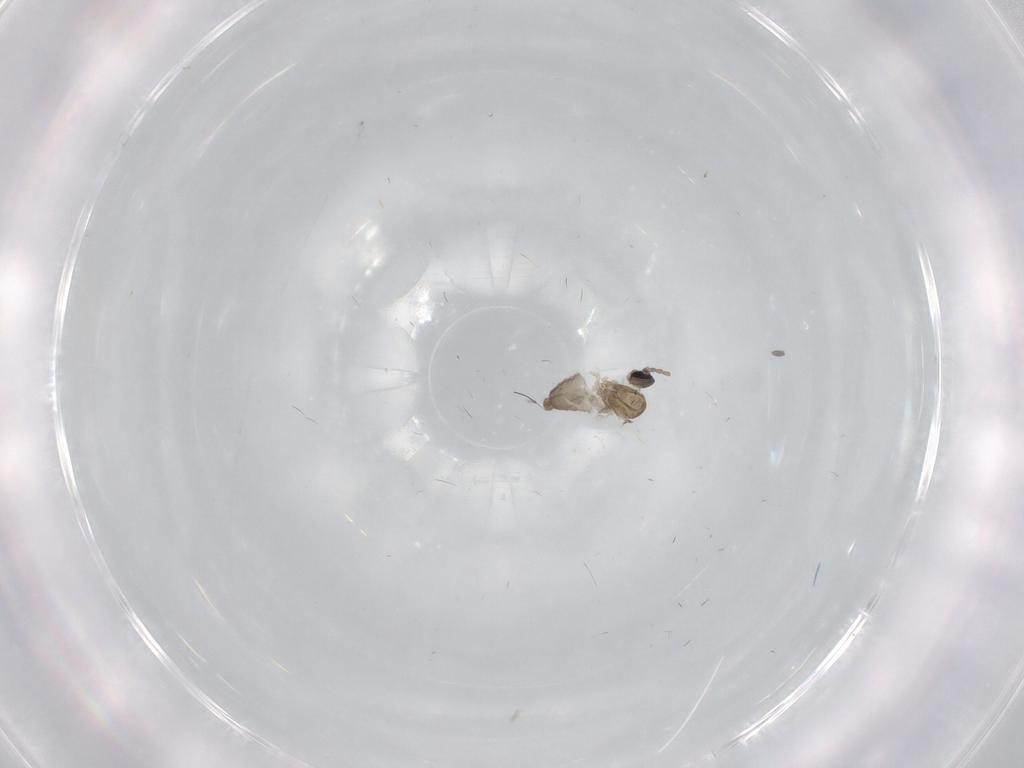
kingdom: Animalia
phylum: Arthropoda
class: Insecta
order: Diptera
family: Cecidomyiidae
